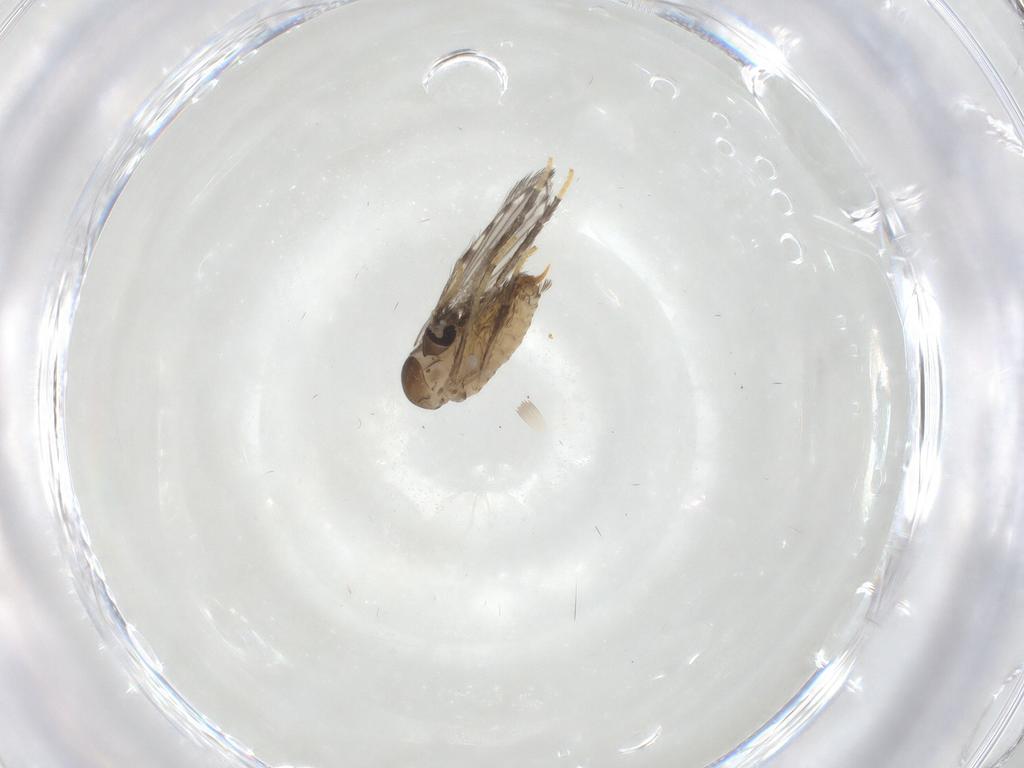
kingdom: Animalia
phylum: Arthropoda
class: Insecta
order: Diptera
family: Psychodidae
